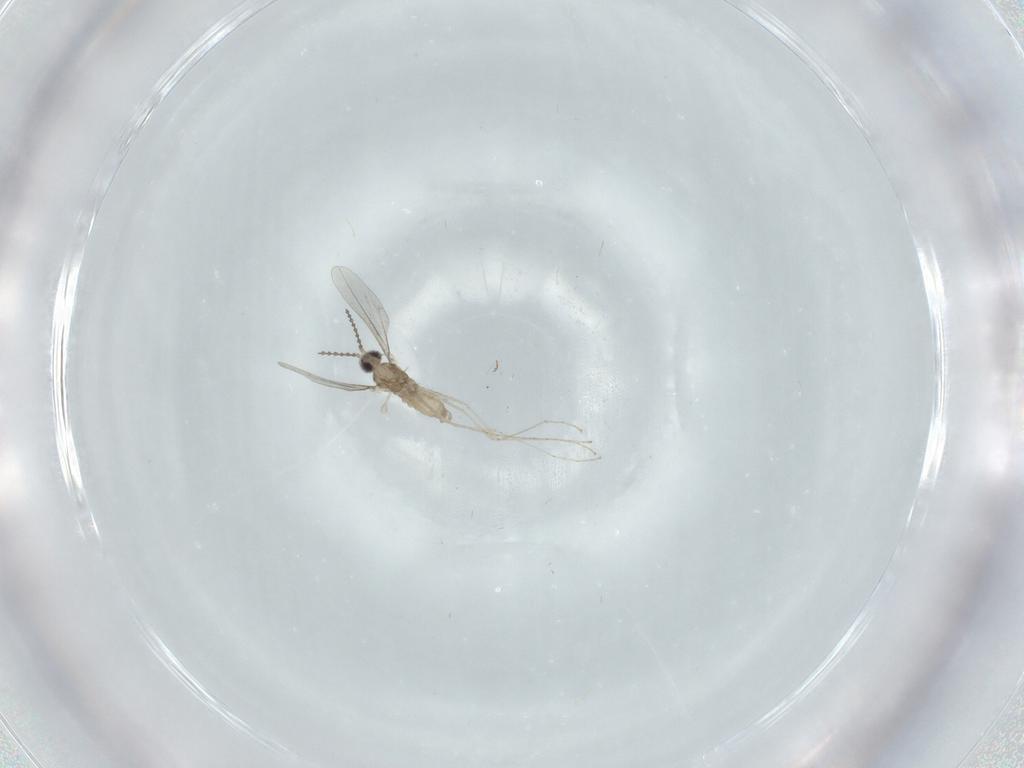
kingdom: Animalia
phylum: Arthropoda
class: Insecta
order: Diptera
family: Cecidomyiidae
